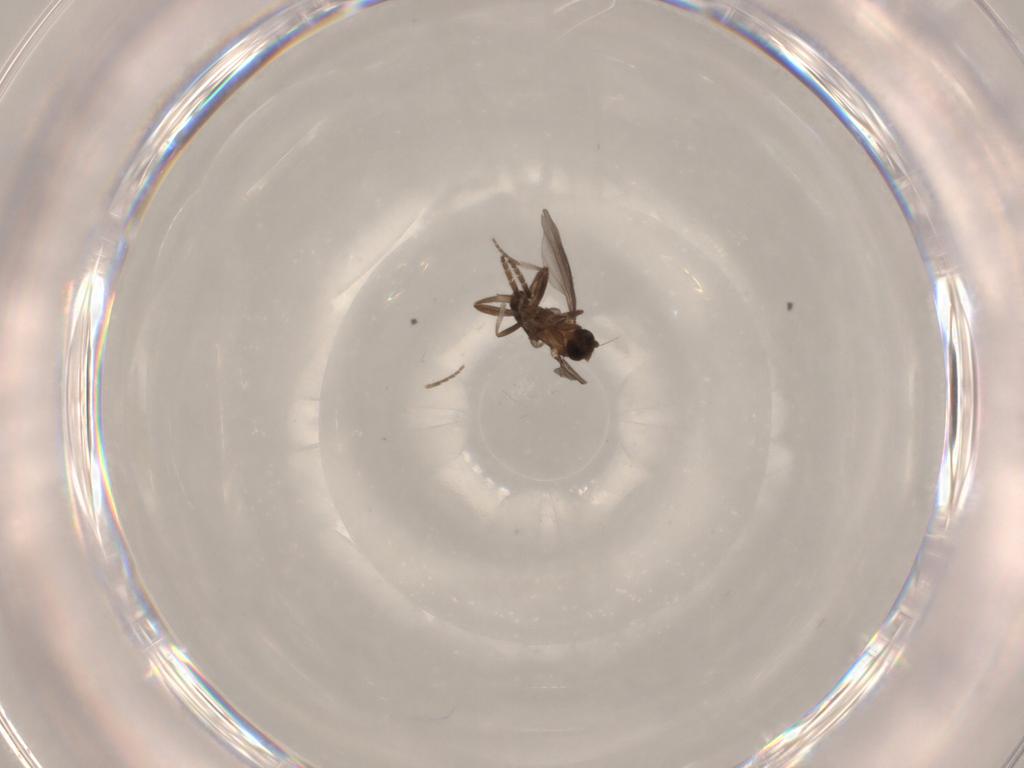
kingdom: Animalia
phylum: Arthropoda
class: Insecta
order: Diptera
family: Phoridae
